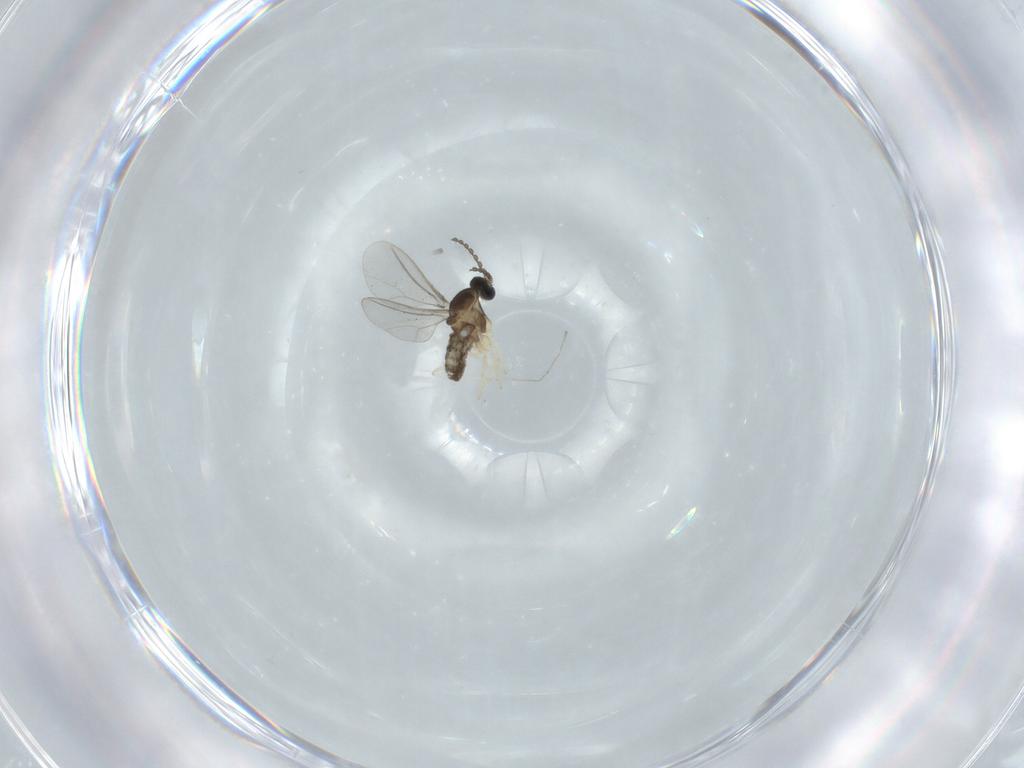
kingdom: Animalia
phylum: Arthropoda
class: Insecta
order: Diptera
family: Cecidomyiidae
